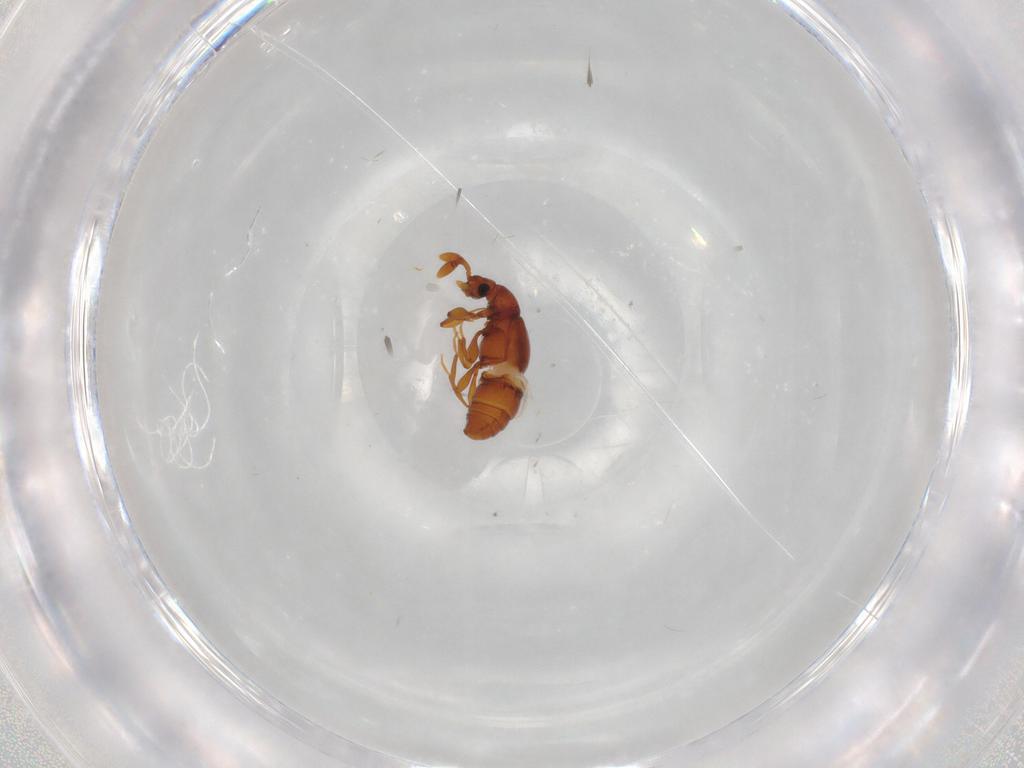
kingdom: Animalia
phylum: Arthropoda
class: Insecta
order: Coleoptera
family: Staphylinidae
